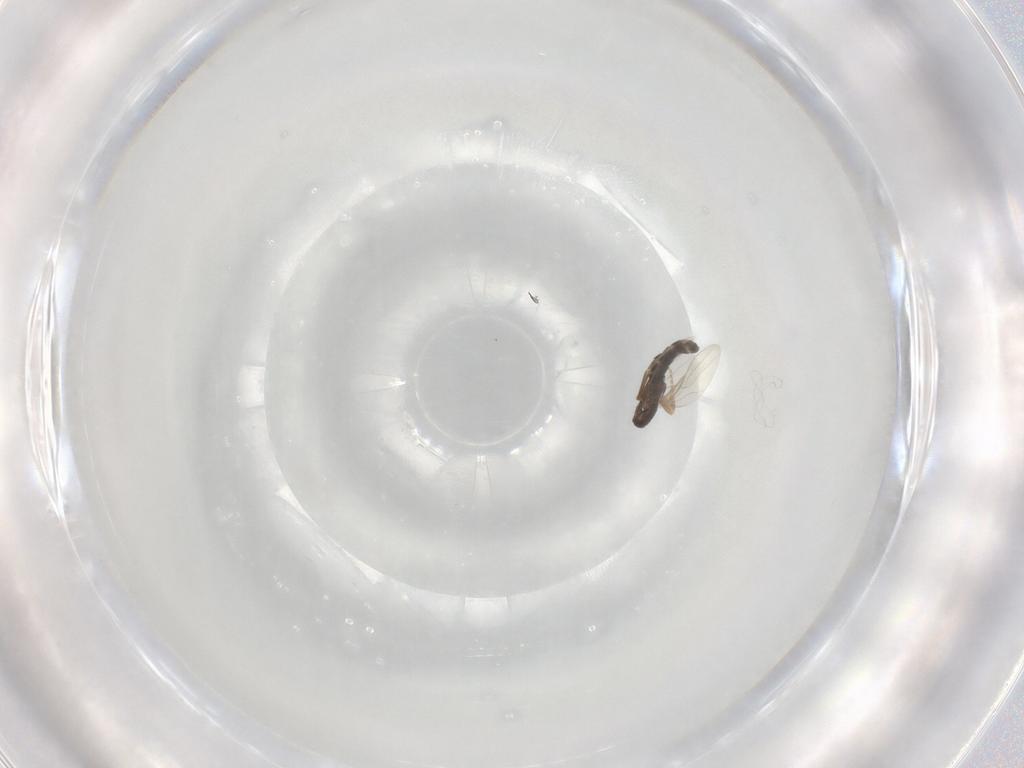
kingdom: Animalia
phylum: Arthropoda
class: Insecta
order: Diptera
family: Phoridae
